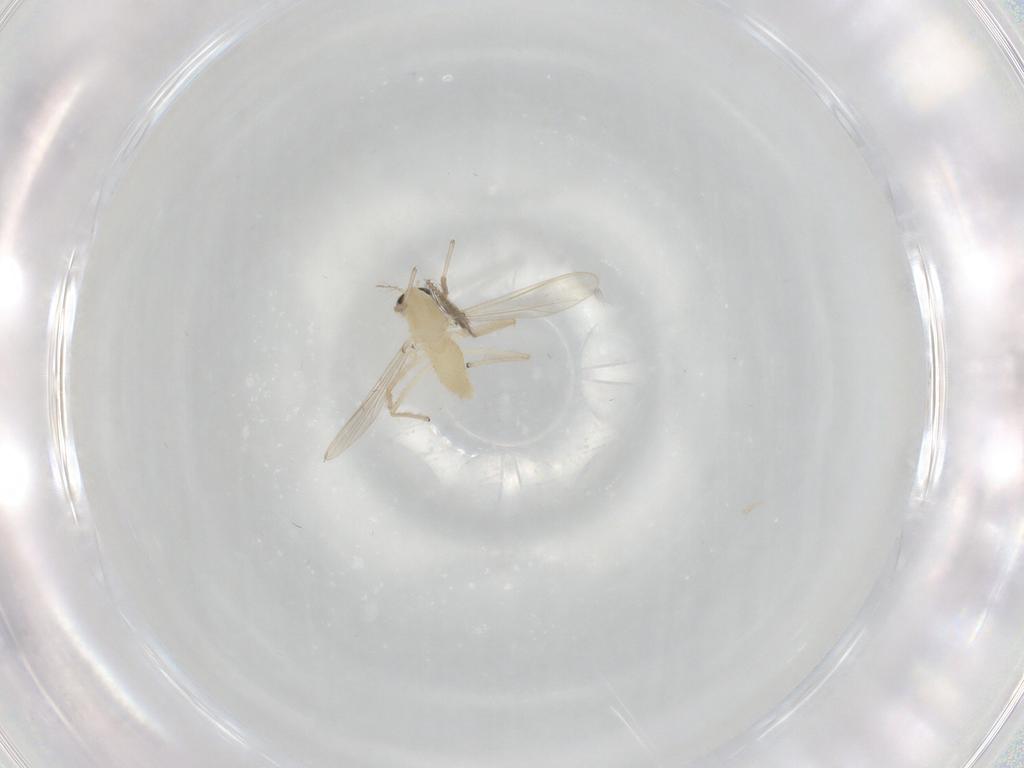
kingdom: Animalia
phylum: Arthropoda
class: Insecta
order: Diptera
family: Chironomidae
